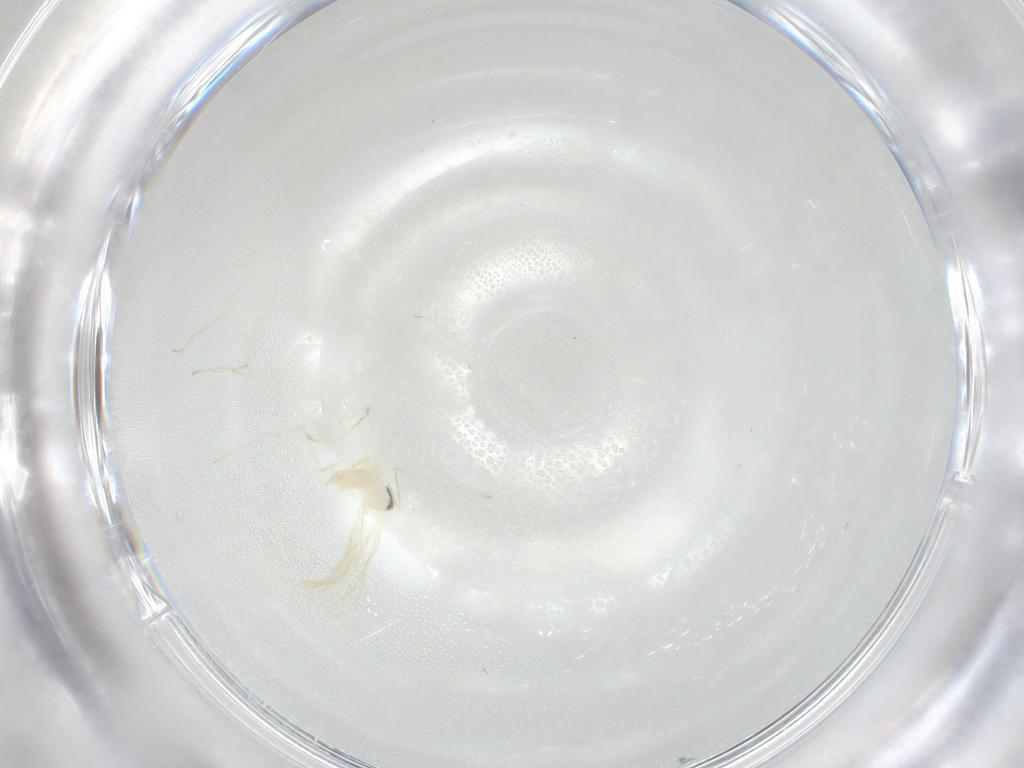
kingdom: Animalia
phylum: Arthropoda
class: Insecta
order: Diptera
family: Cecidomyiidae
